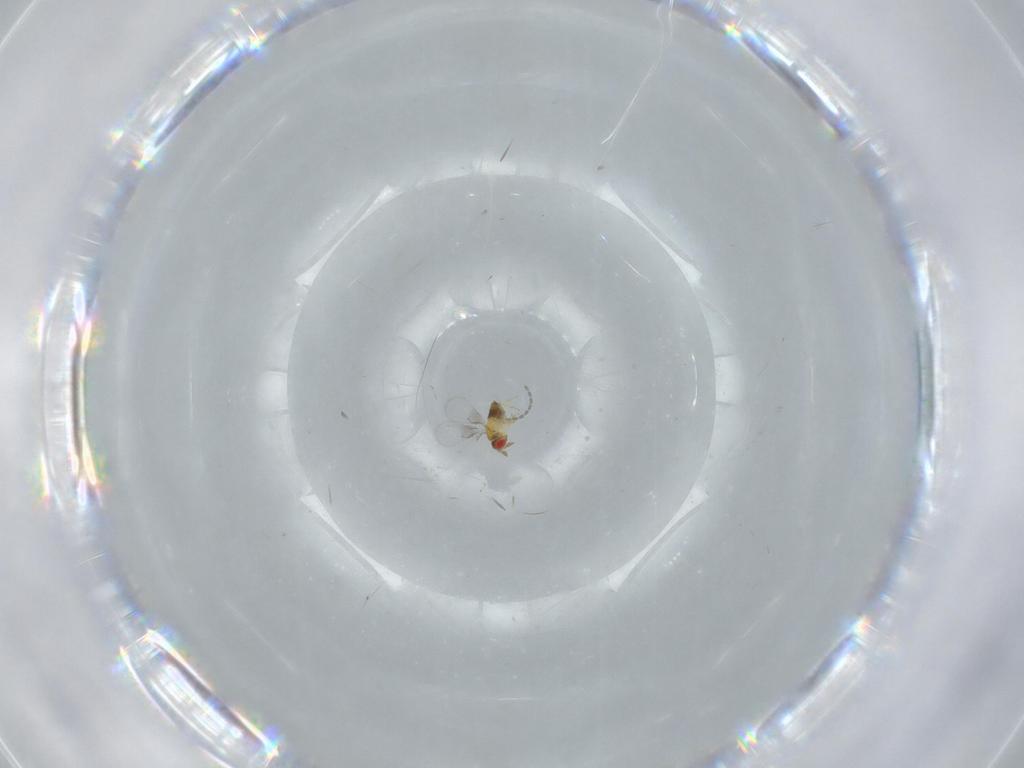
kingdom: Animalia
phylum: Arthropoda
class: Insecta
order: Hymenoptera
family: Trichogrammatidae
